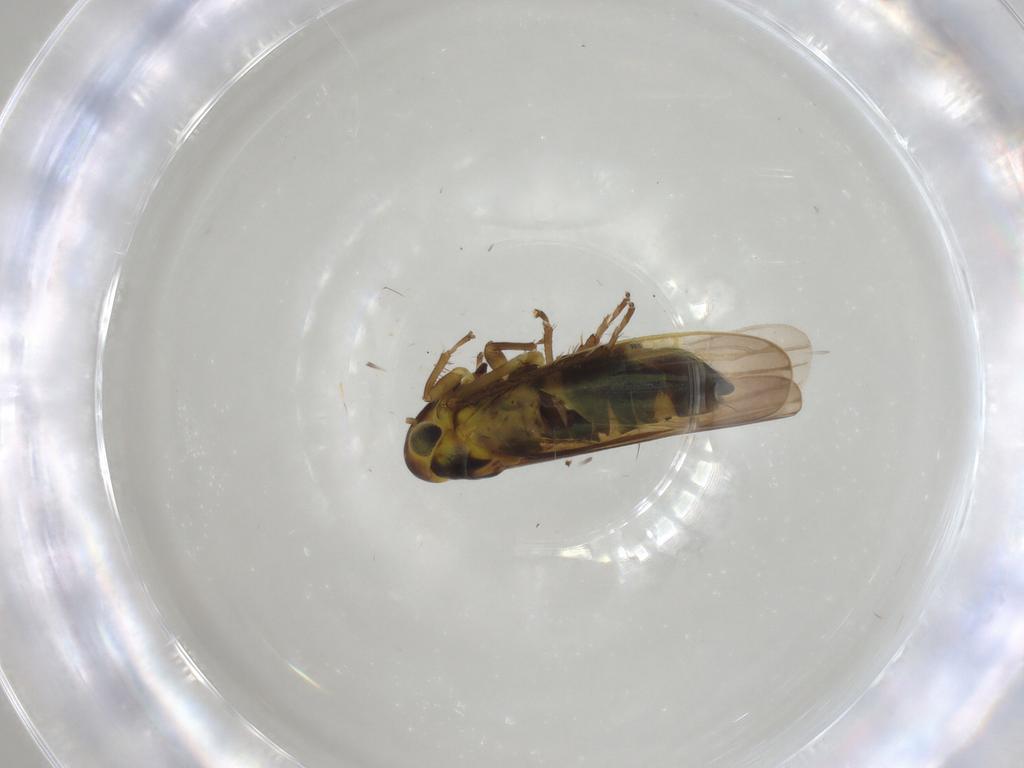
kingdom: Animalia
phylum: Arthropoda
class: Insecta
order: Hemiptera
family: Cicadellidae
